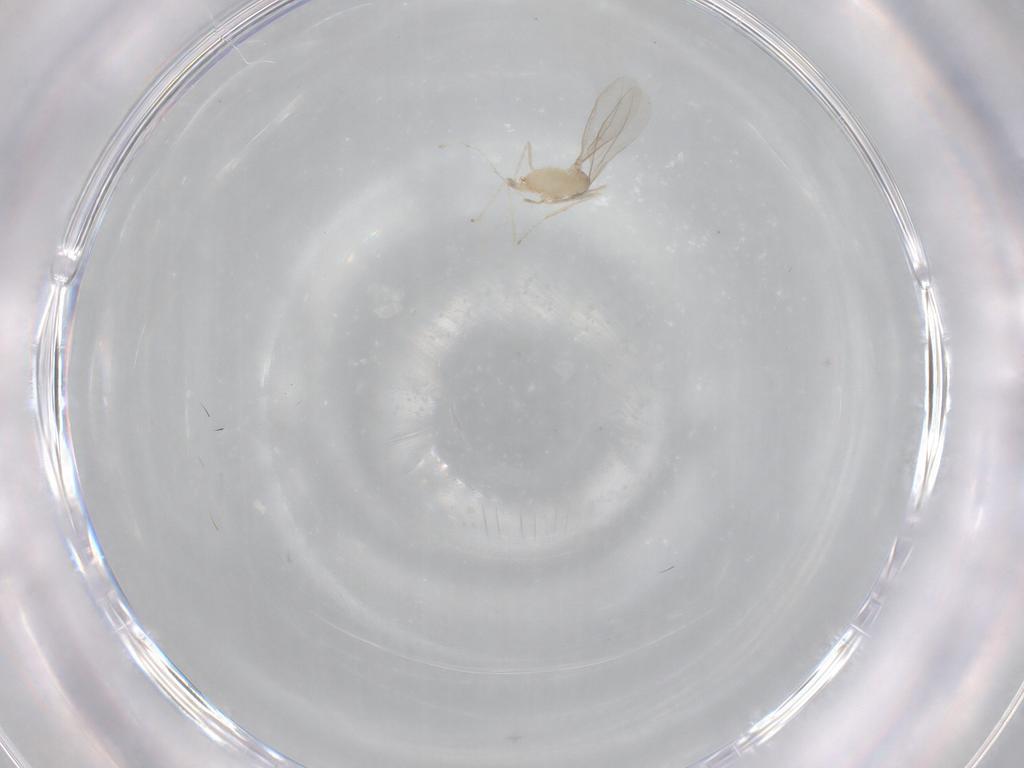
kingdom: Animalia
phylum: Arthropoda
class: Insecta
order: Diptera
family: Cecidomyiidae
